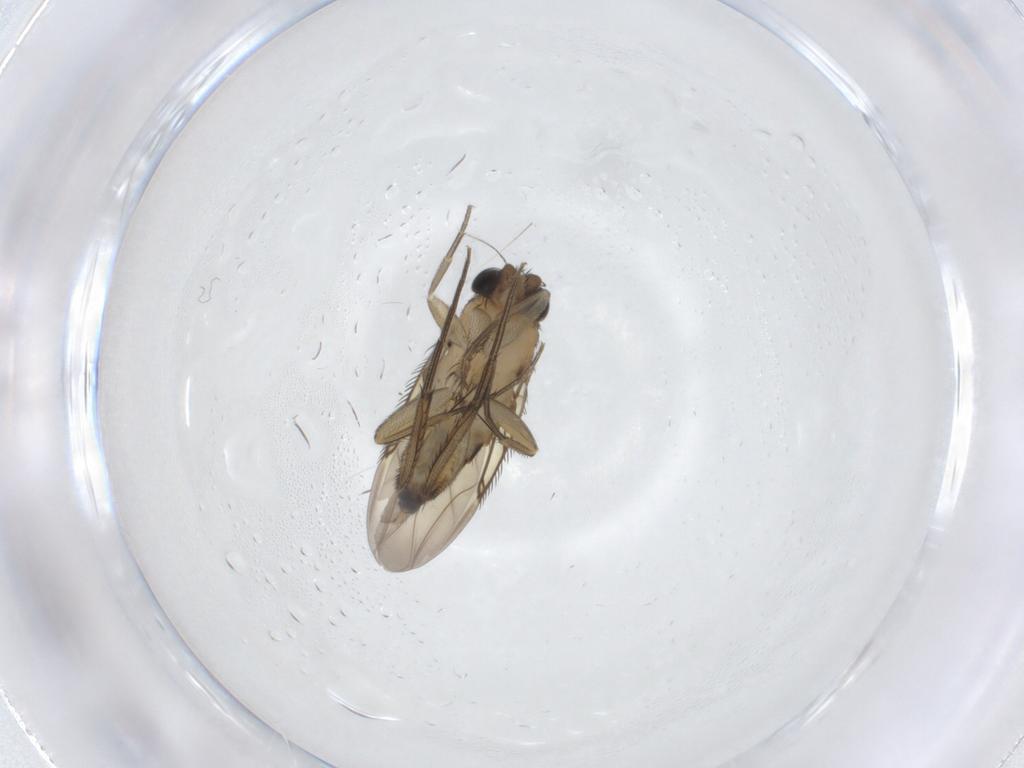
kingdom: Animalia
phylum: Arthropoda
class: Insecta
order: Diptera
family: Phoridae
